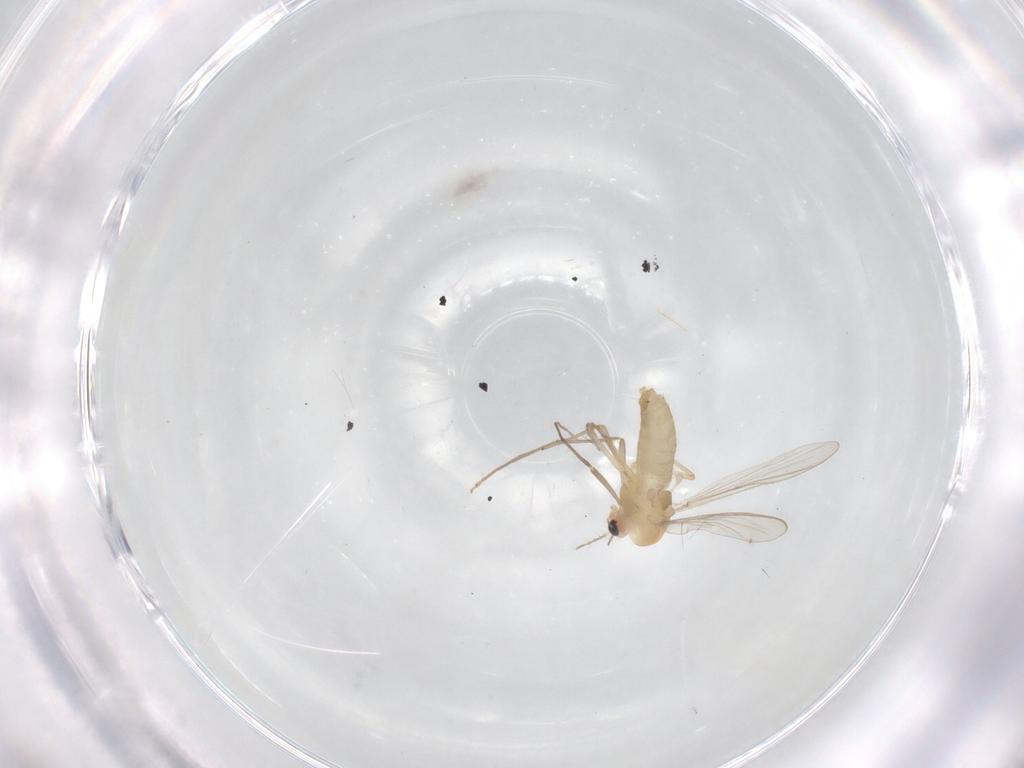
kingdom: Animalia
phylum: Arthropoda
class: Insecta
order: Diptera
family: Chironomidae
